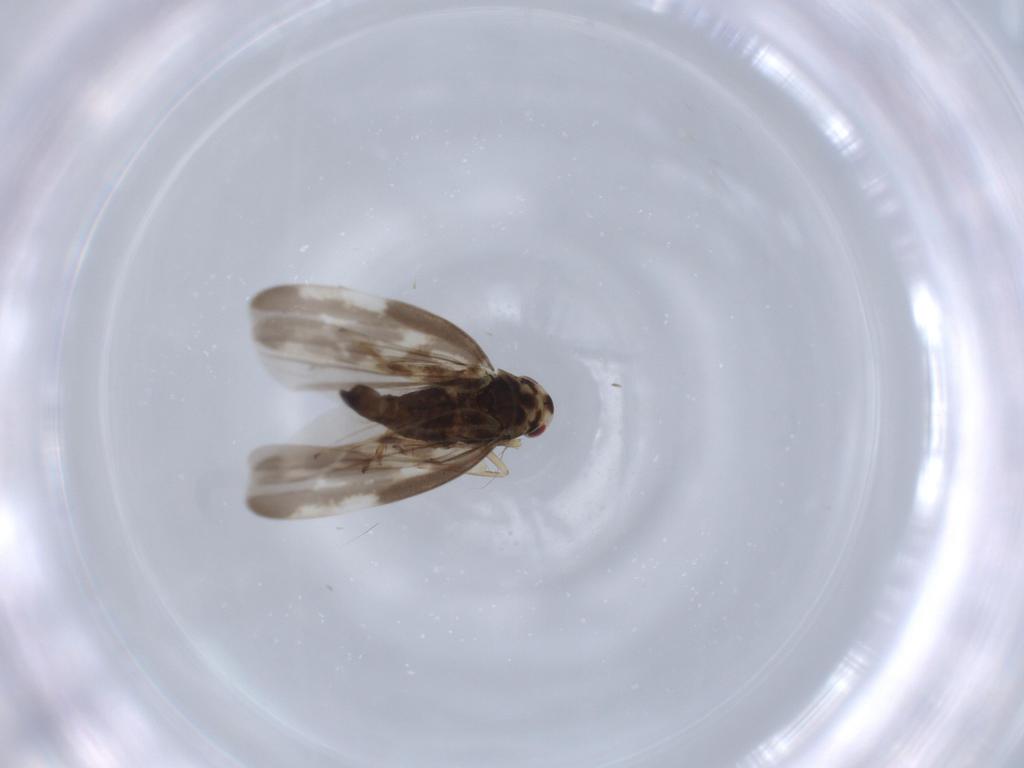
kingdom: Animalia
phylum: Arthropoda
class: Insecta
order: Hemiptera
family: Cicadellidae
